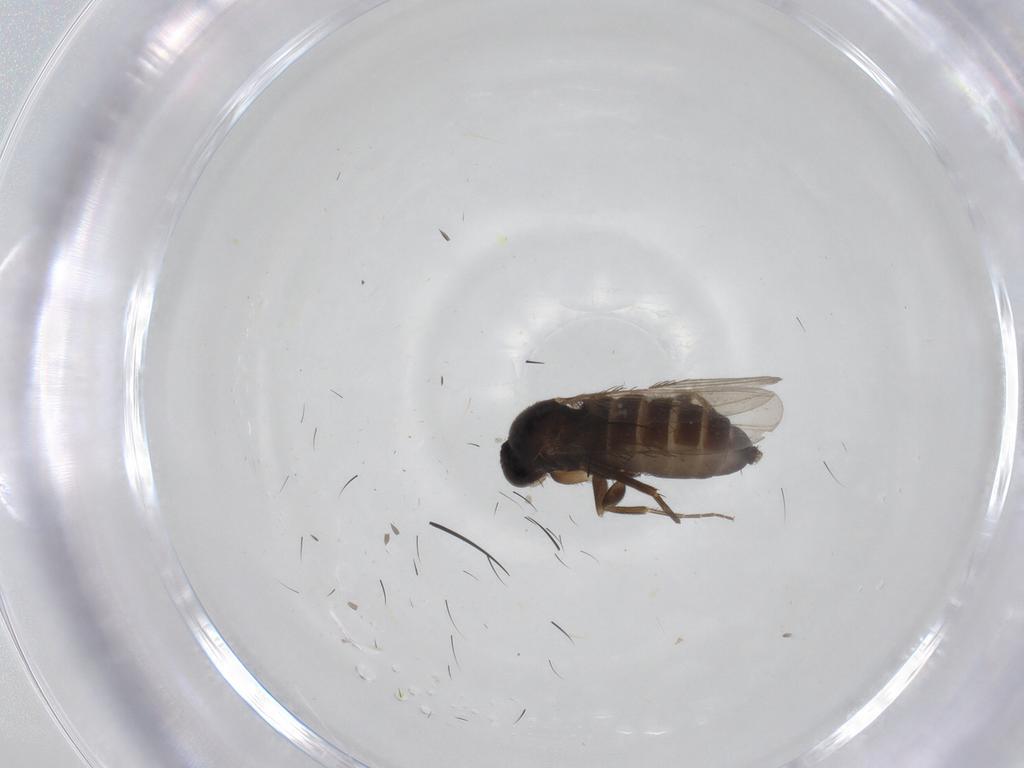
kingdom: Animalia
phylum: Arthropoda
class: Insecta
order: Diptera
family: Phoridae
